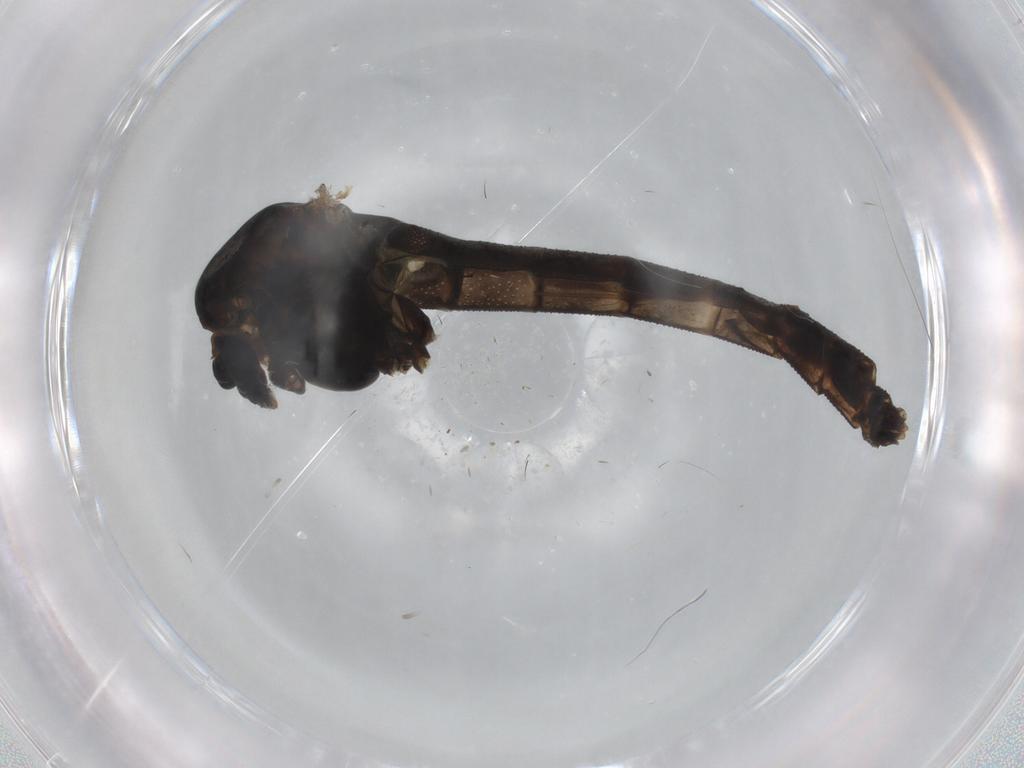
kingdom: Animalia
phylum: Arthropoda
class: Insecta
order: Diptera
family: Chironomidae
